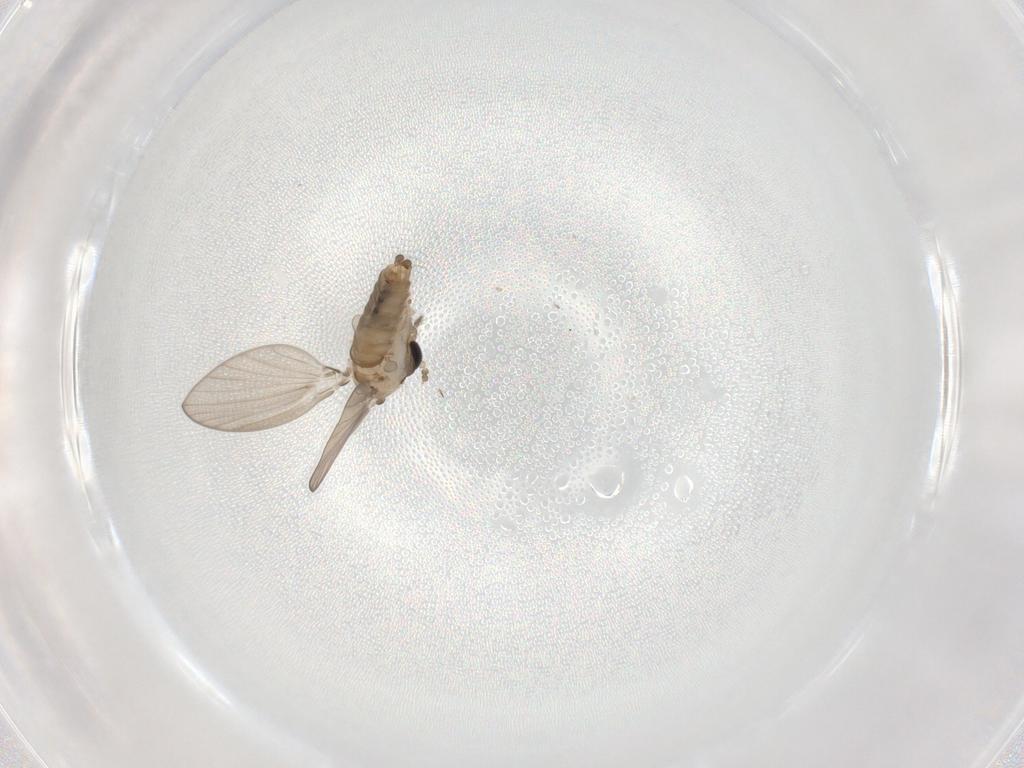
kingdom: Animalia
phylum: Arthropoda
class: Insecta
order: Diptera
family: Psychodidae
